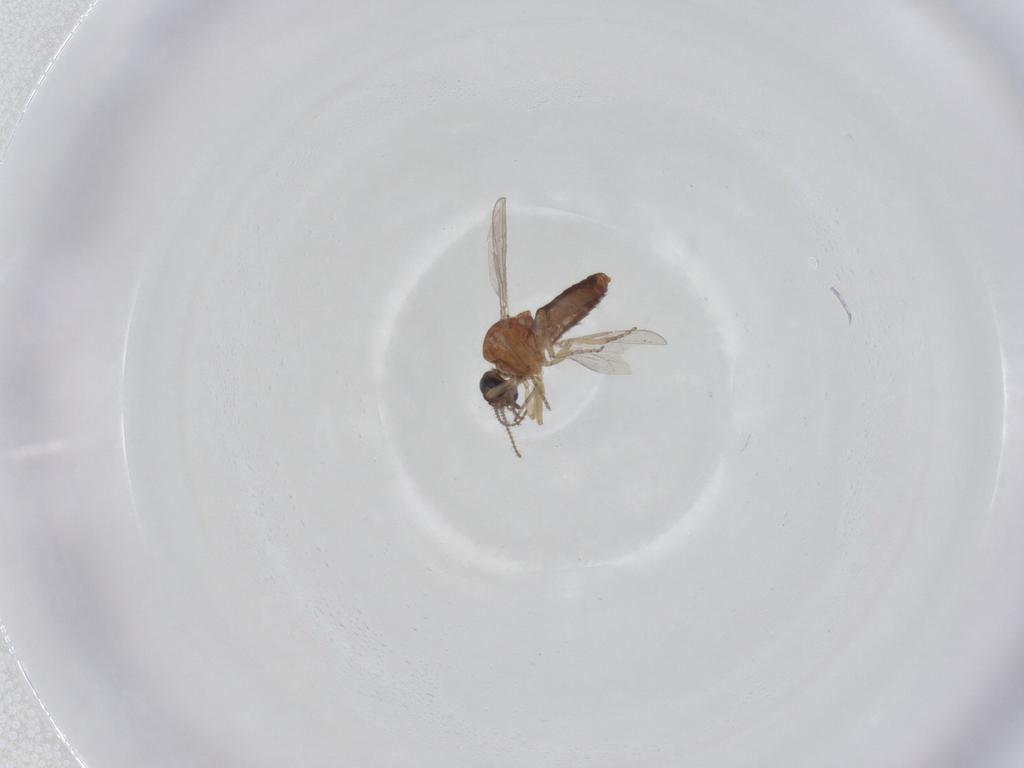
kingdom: Animalia
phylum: Arthropoda
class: Insecta
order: Diptera
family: Ceratopogonidae
